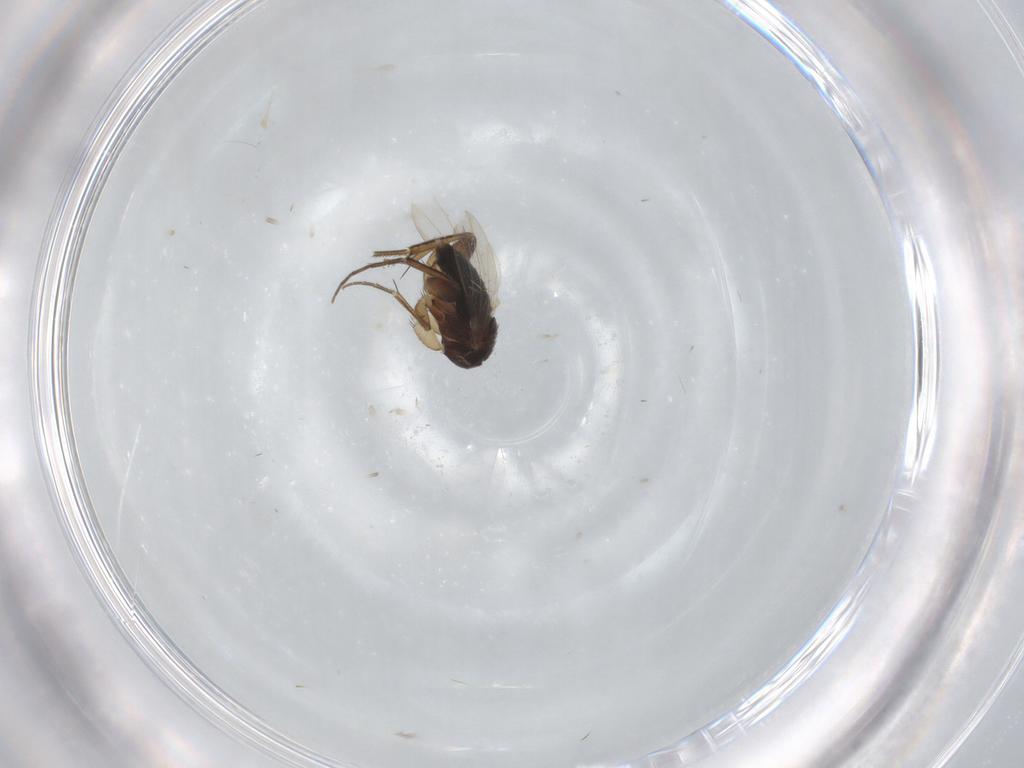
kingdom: Animalia
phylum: Arthropoda
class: Insecta
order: Diptera
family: Phoridae
